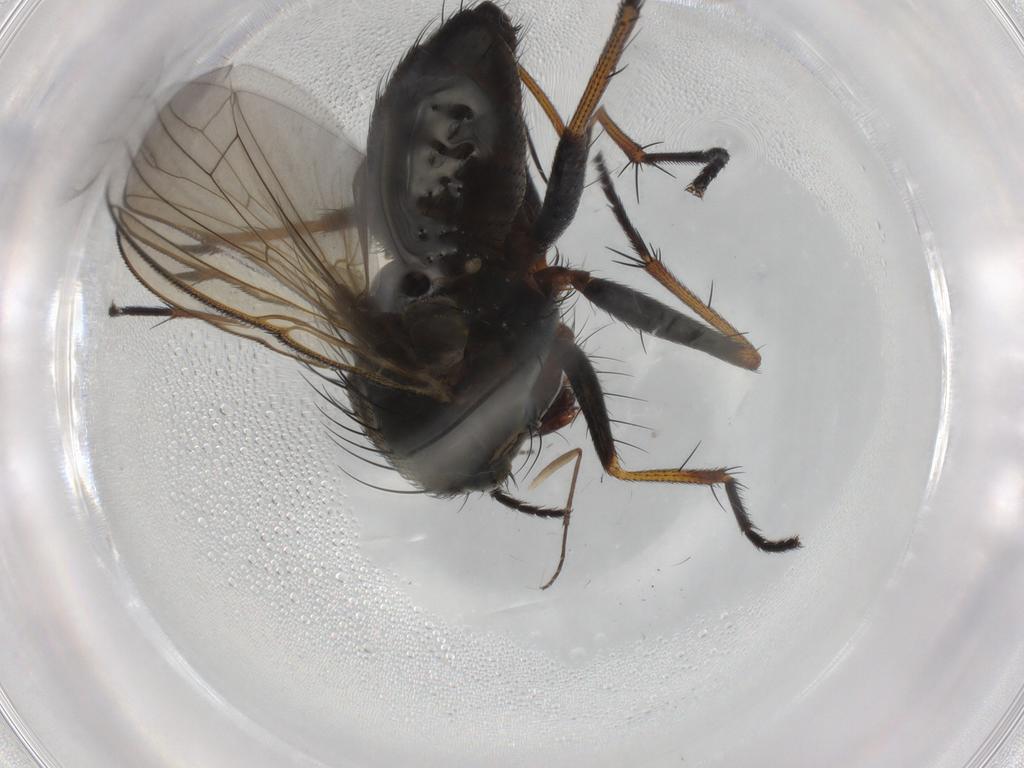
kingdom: Animalia
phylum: Arthropoda
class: Insecta
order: Diptera
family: Muscidae
